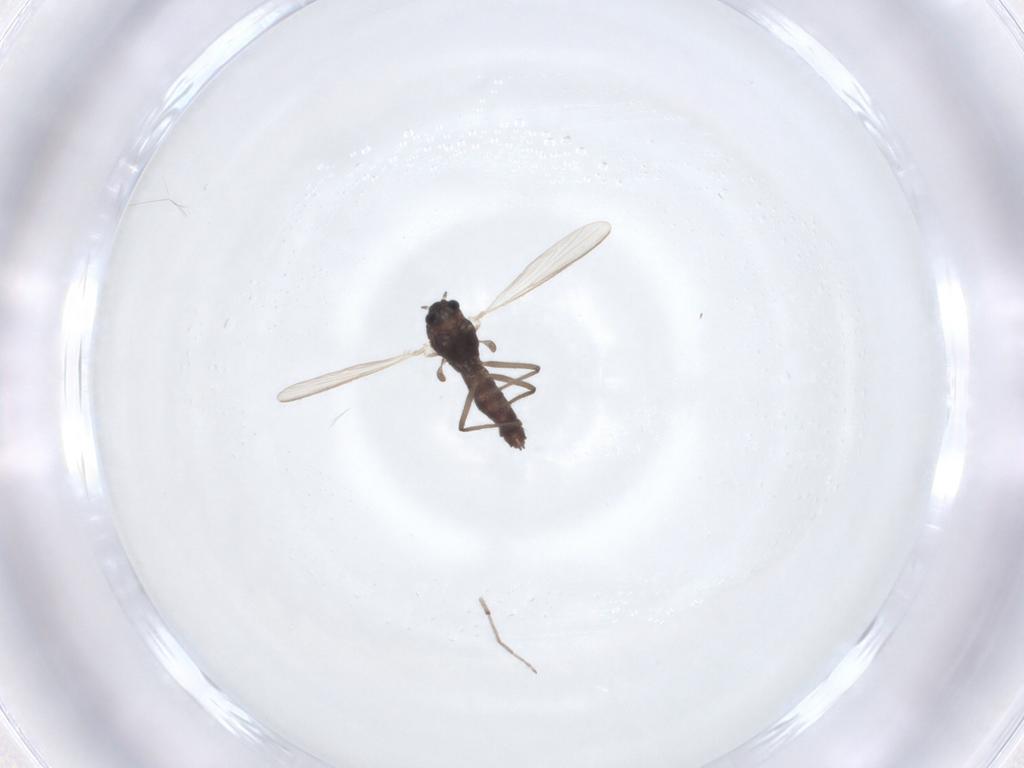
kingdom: Animalia
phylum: Arthropoda
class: Insecta
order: Diptera
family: Chironomidae
